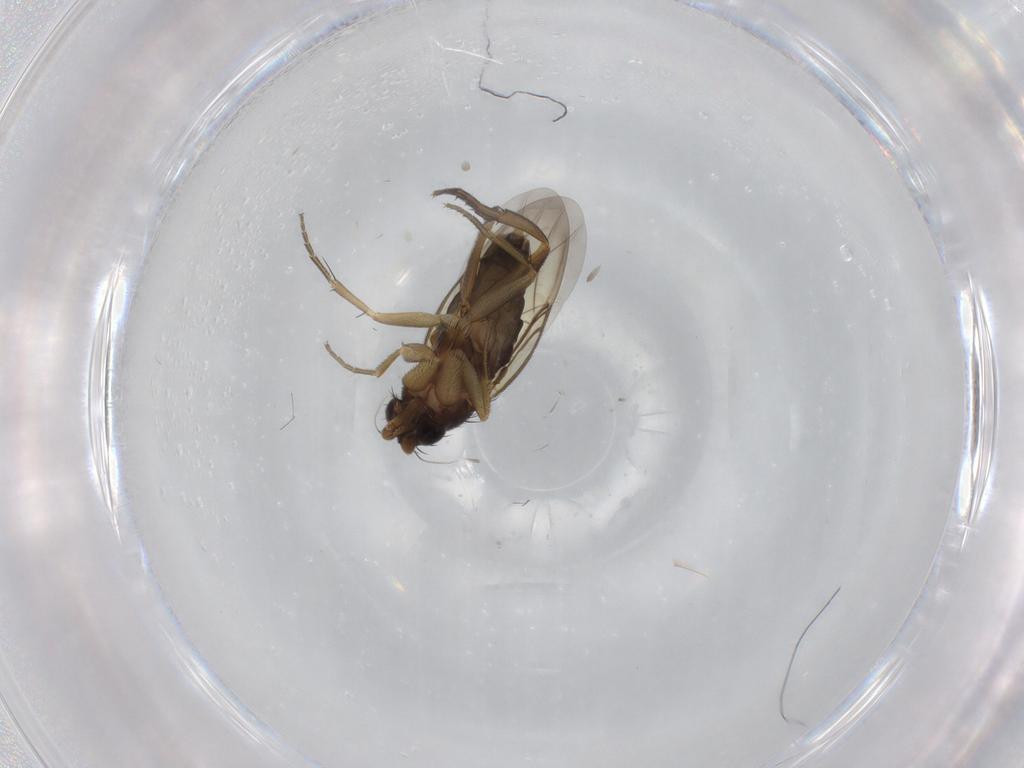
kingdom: Animalia
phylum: Arthropoda
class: Insecta
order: Diptera
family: Phoridae
